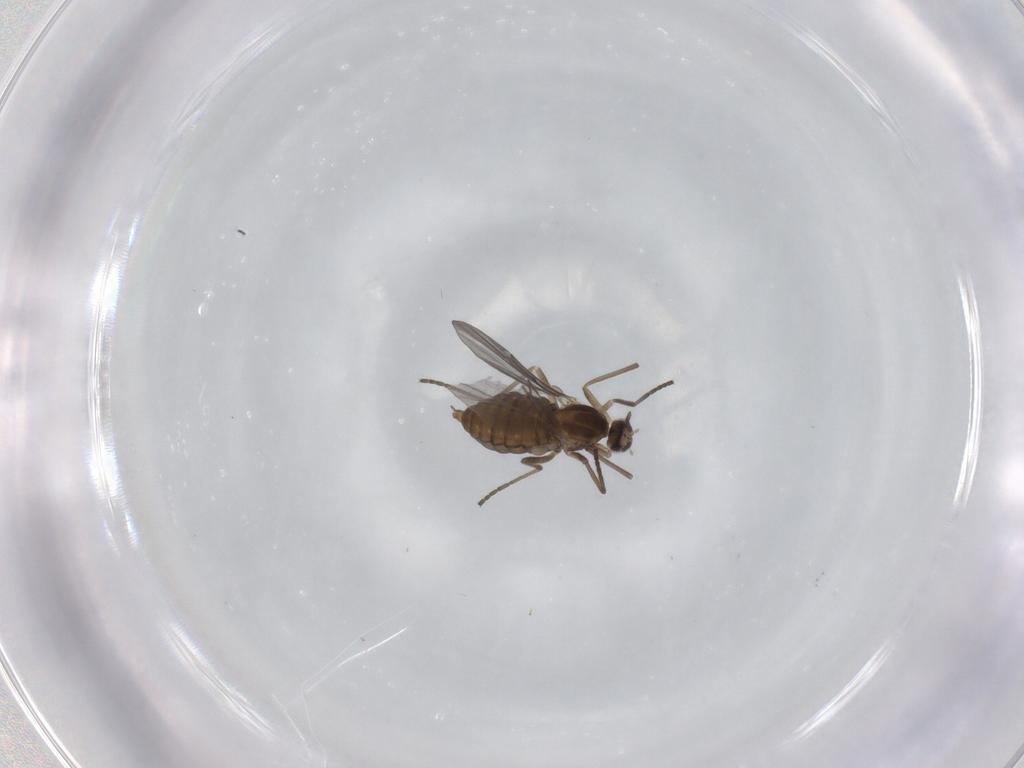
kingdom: Animalia
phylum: Arthropoda
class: Insecta
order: Diptera
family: Cecidomyiidae
